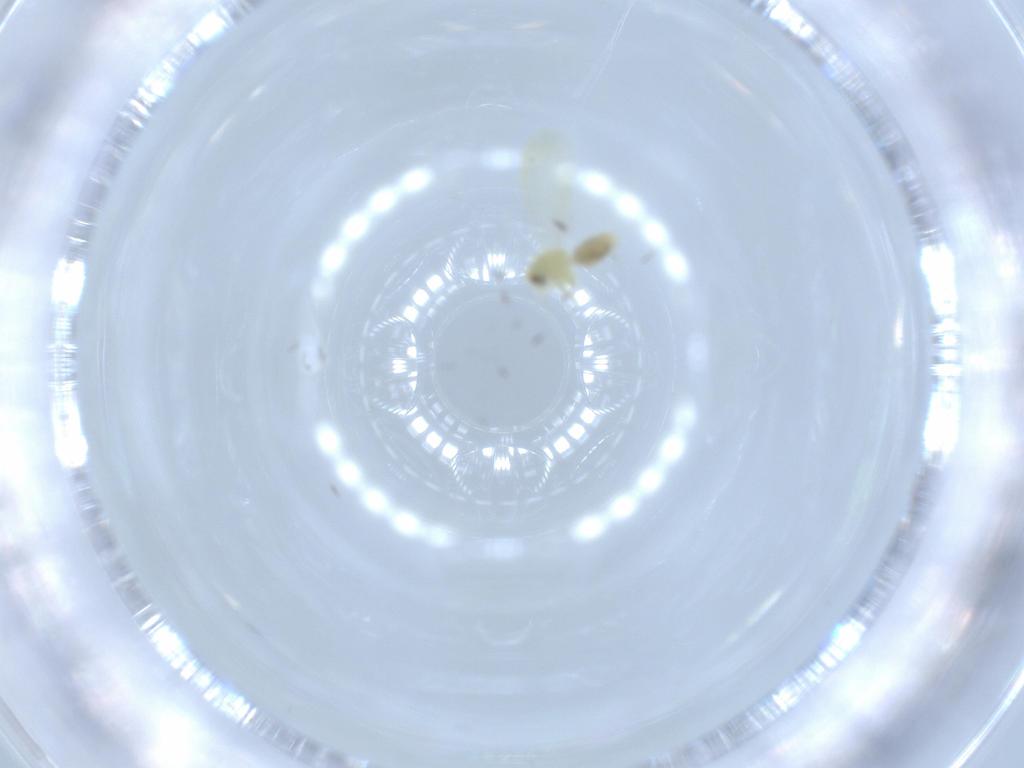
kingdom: Animalia
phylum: Arthropoda
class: Insecta
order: Hemiptera
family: Aleyrodidae
